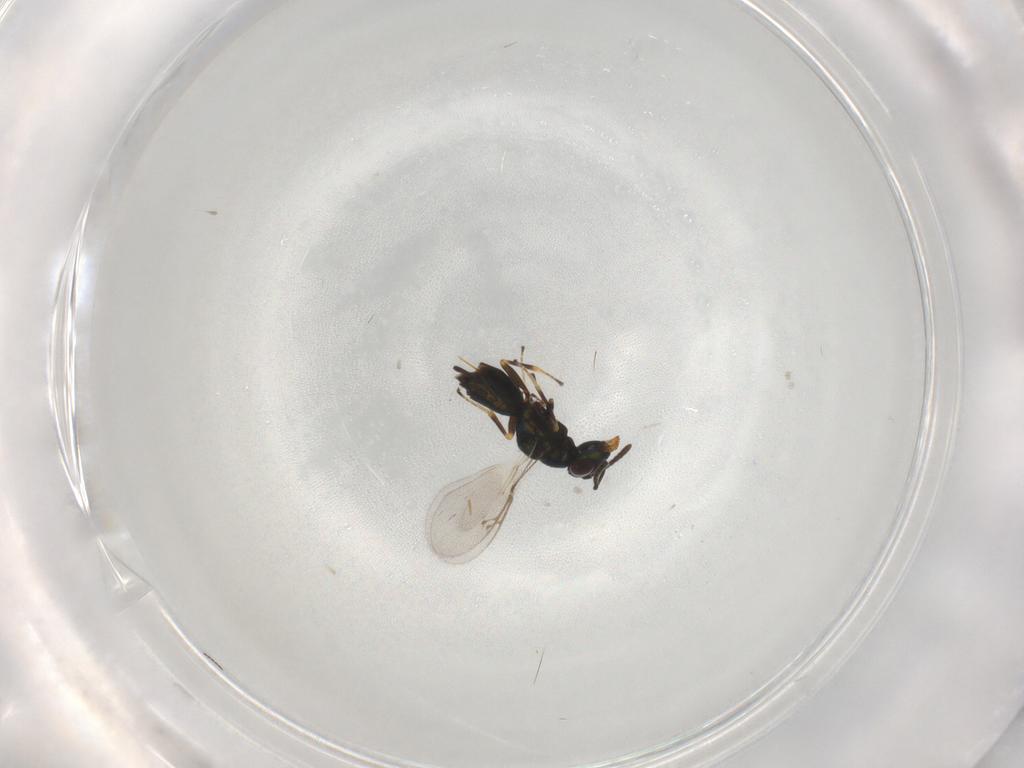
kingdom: Animalia
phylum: Arthropoda
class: Insecta
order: Hymenoptera
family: Pteromalidae
